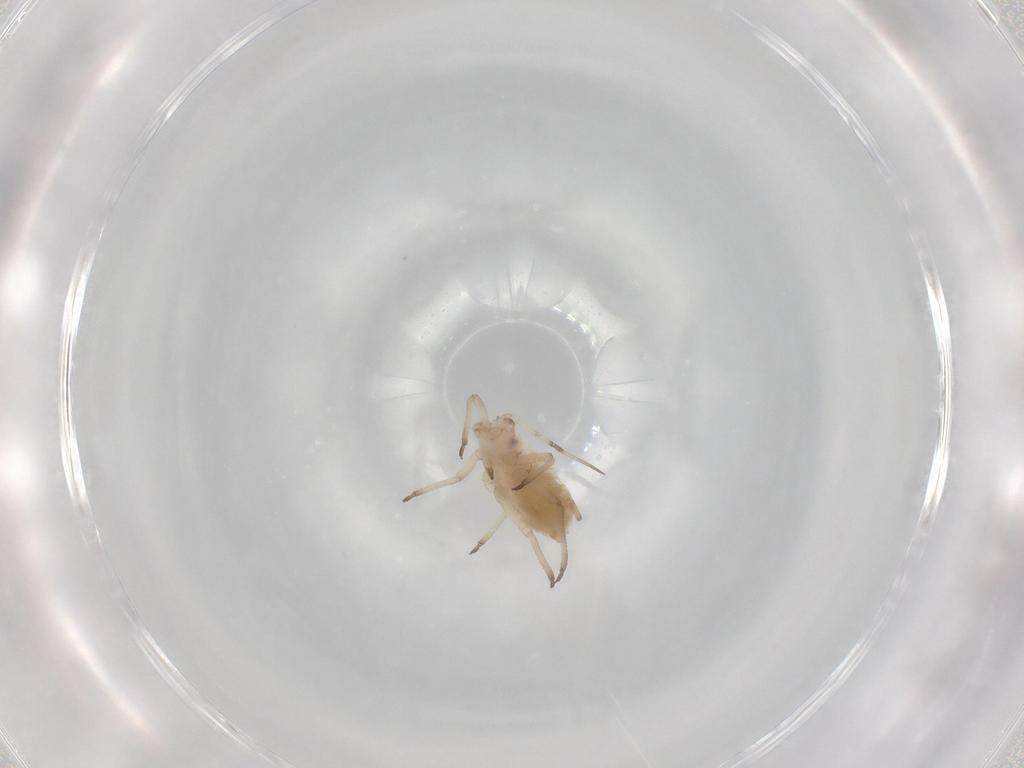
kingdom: Animalia
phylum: Arthropoda
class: Insecta
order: Hemiptera
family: Aphididae
